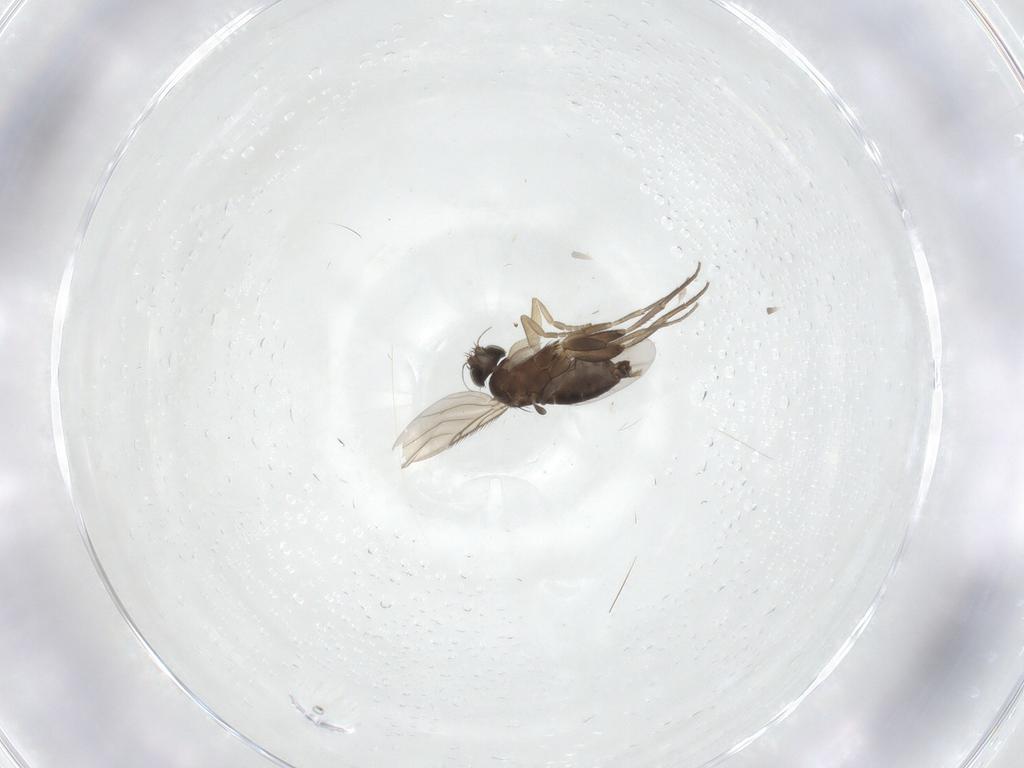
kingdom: Animalia
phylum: Arthropoda
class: Insecta
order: Diptera
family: Phoridae
